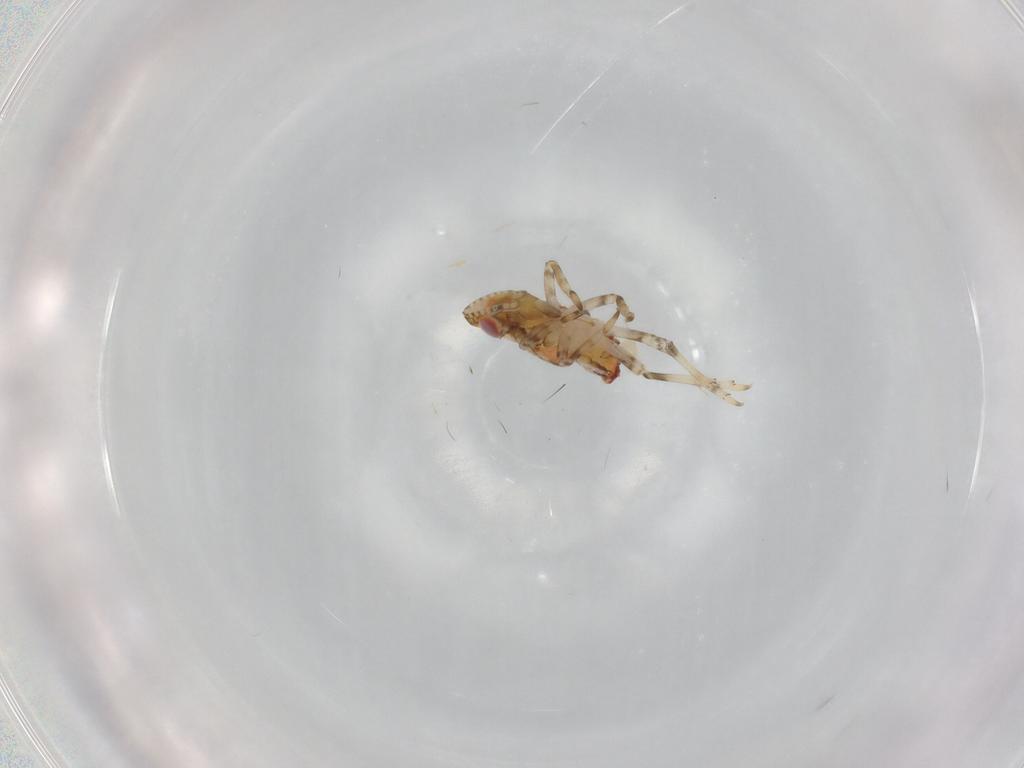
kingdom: Animalia
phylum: Arthropoda
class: Insecta
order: Hemiptera
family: Tropiduchidae
